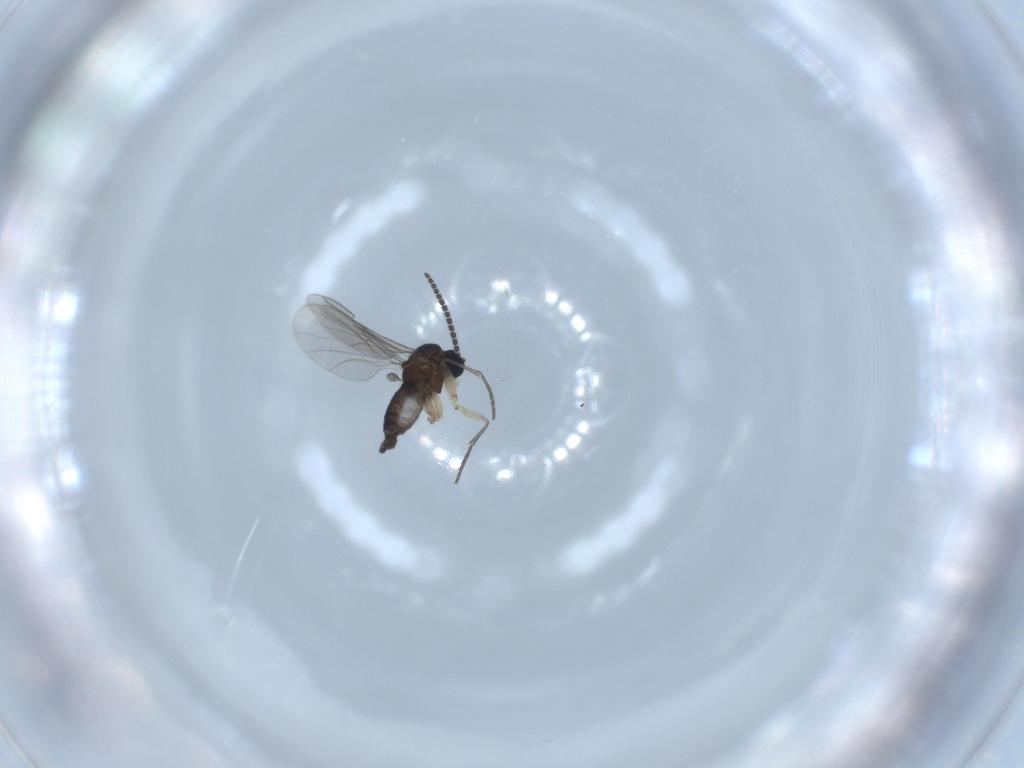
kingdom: Animalia
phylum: Arthropoda
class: Insecta
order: Diptera
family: Sciaridae
